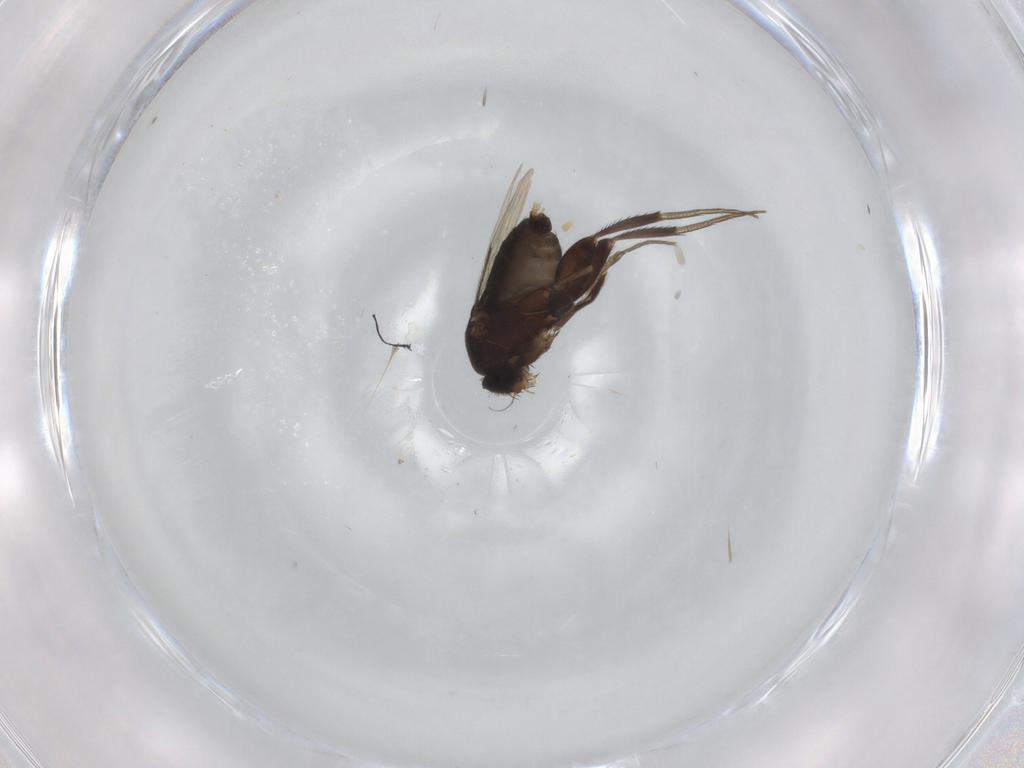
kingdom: Animalia
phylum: Arthropoda
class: Insecta
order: Diptera
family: Phoridae
